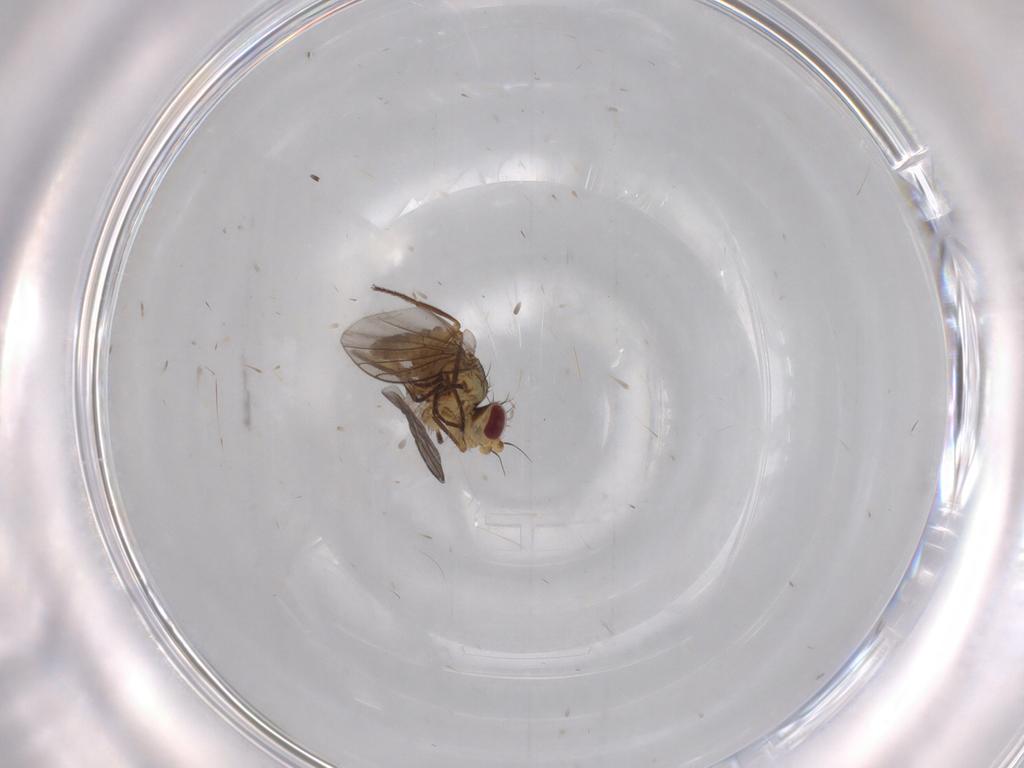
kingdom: Animalia
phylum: Arthropoda
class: Insecta
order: Diptera
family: Agromyzidae
